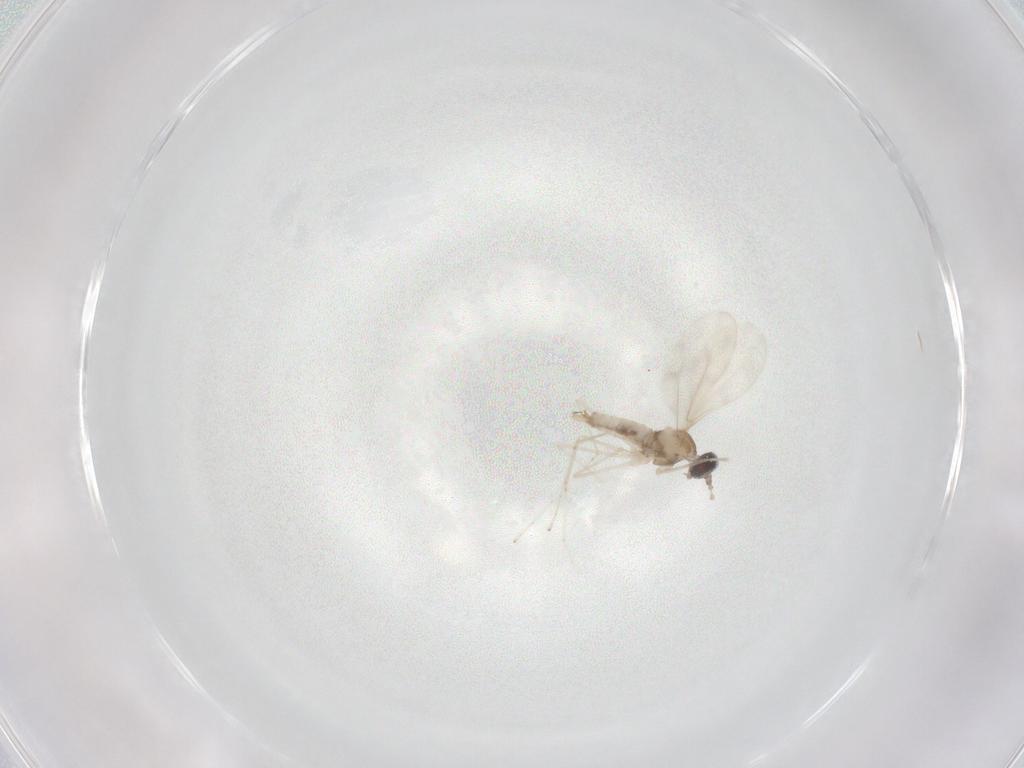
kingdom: Animalia
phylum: Arthropoda
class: Insecta
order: Diptera
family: Cecidomyiidae
